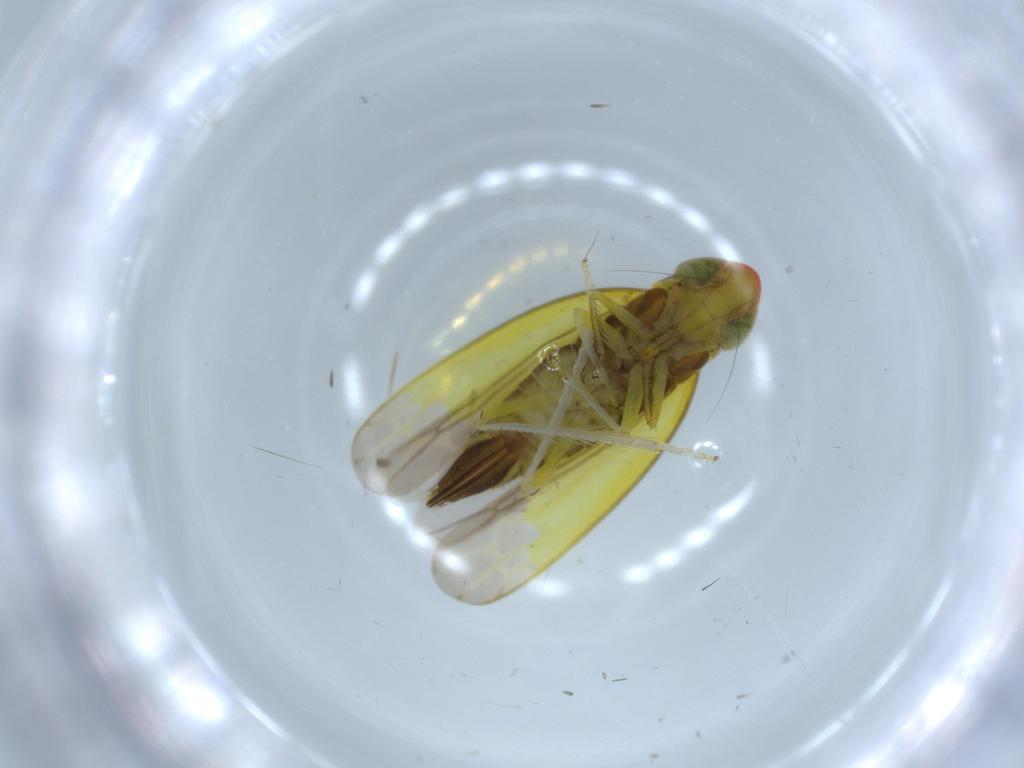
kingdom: Animalia
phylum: Arthropoda
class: Insecta
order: Hemiptera
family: Cicadellidae
